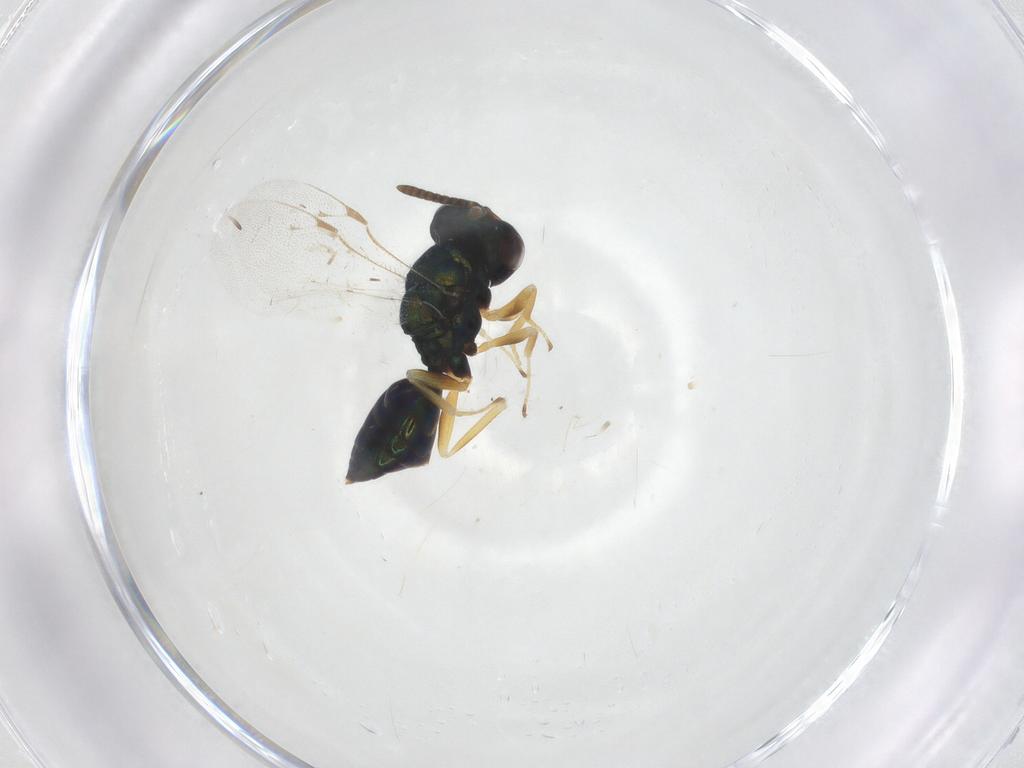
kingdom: Animalia
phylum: Arthropoda
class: Insecta
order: Hymenoptera
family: Pteromalidae
